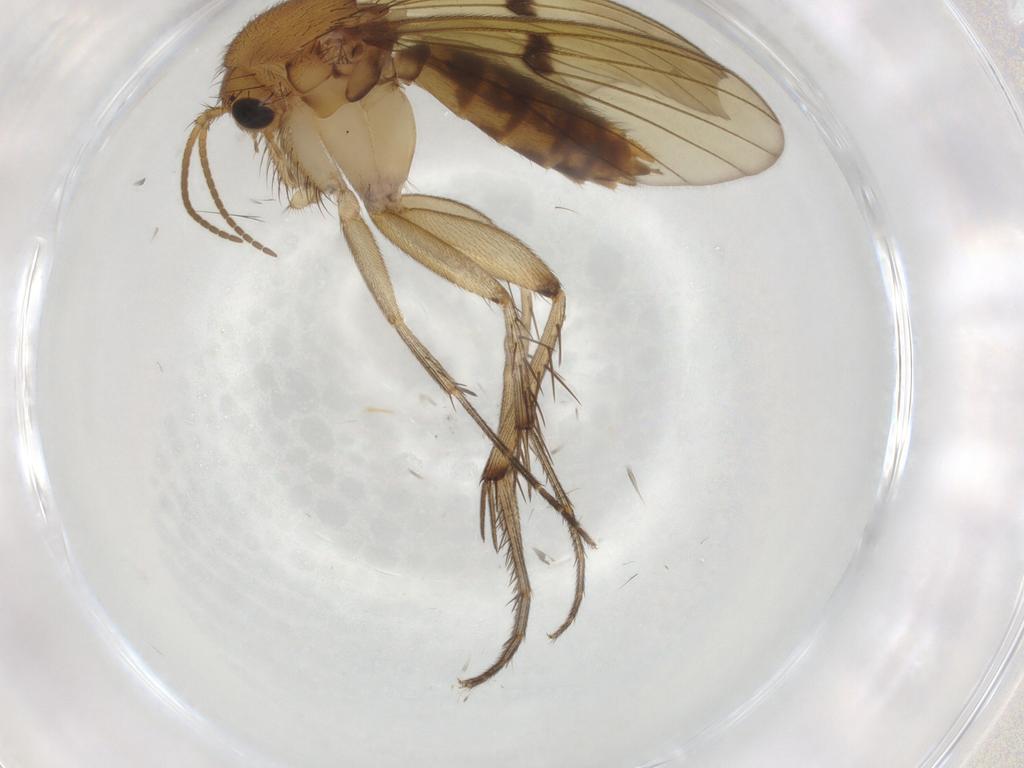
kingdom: Animalia
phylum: Arthropoda
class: Insecta
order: Diptera
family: Mycetophilidae
